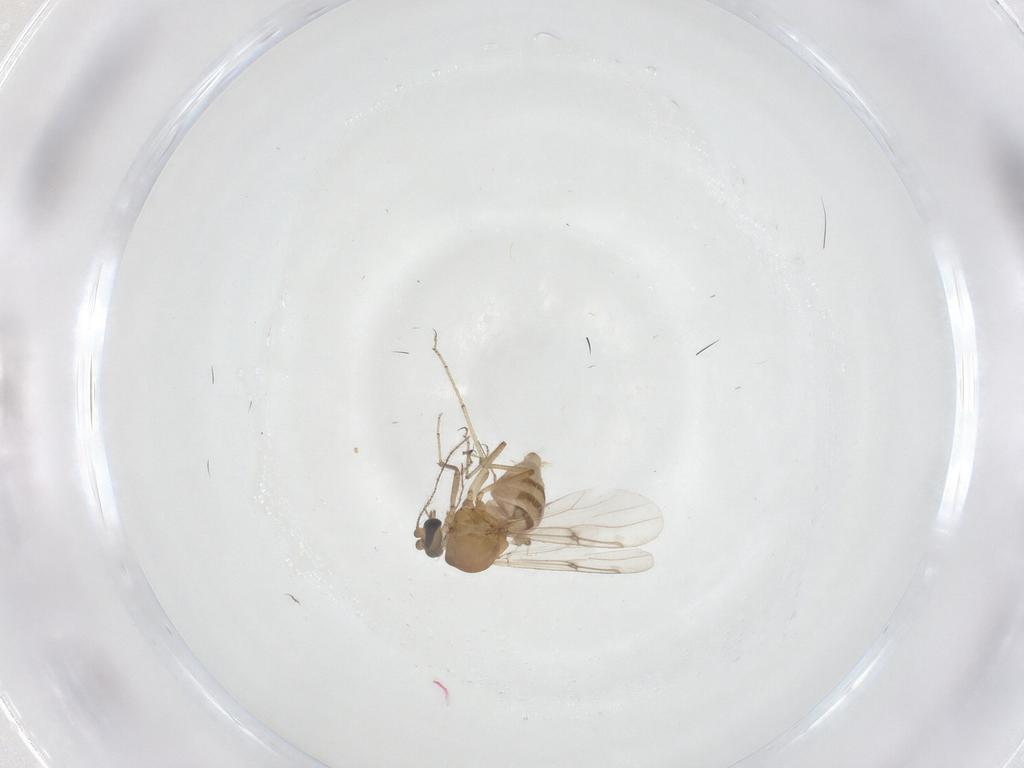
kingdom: Animalia
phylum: Arthropoda
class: Insecta
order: Diptera
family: Ceratopogonidae
